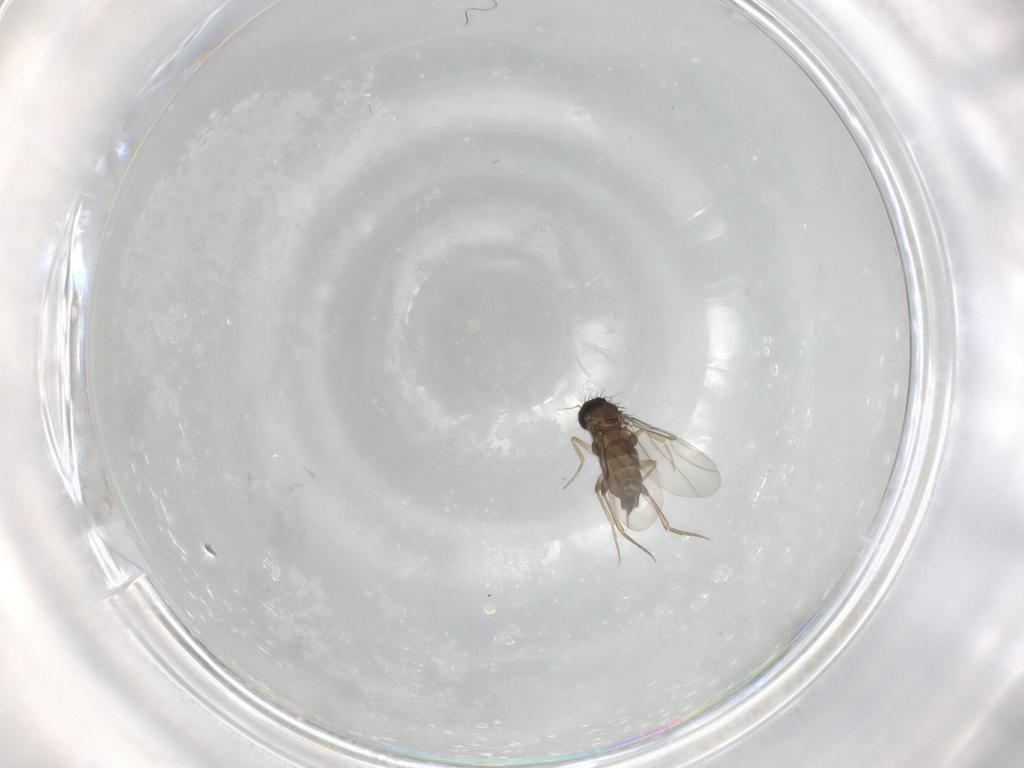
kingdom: Animalia
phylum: Arthropoda
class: Insecta
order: Diptera
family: Phoridae
